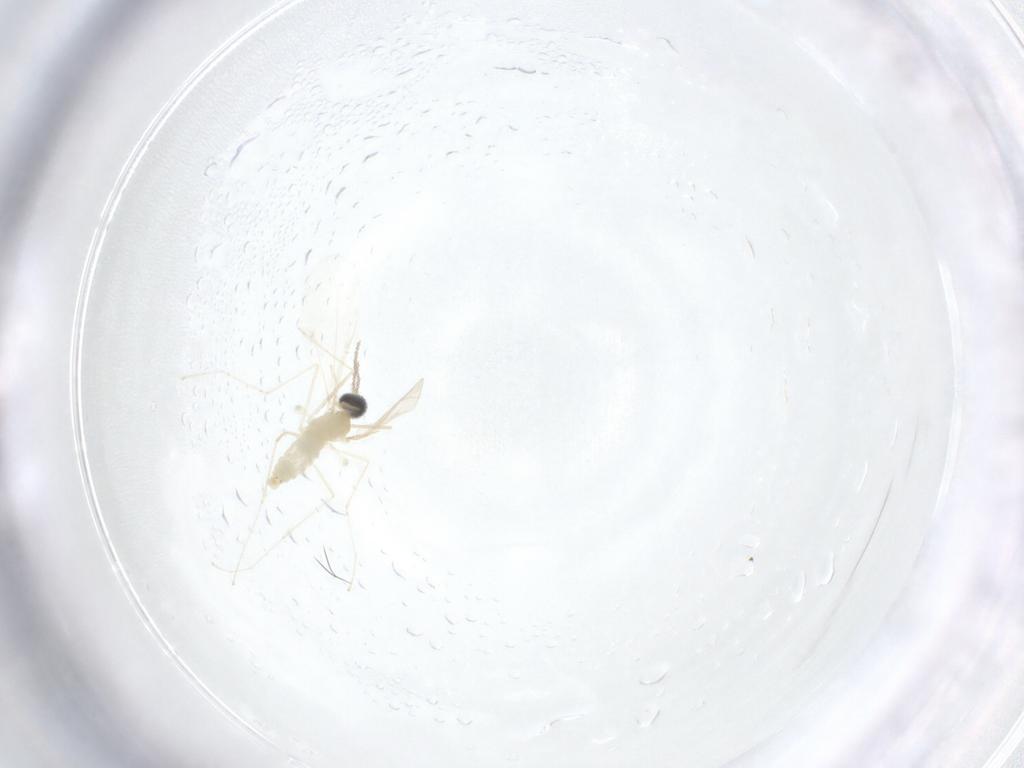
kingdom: Animalia
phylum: Arthropoda
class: Insecta
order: Diptera
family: Cecidomyiidae
